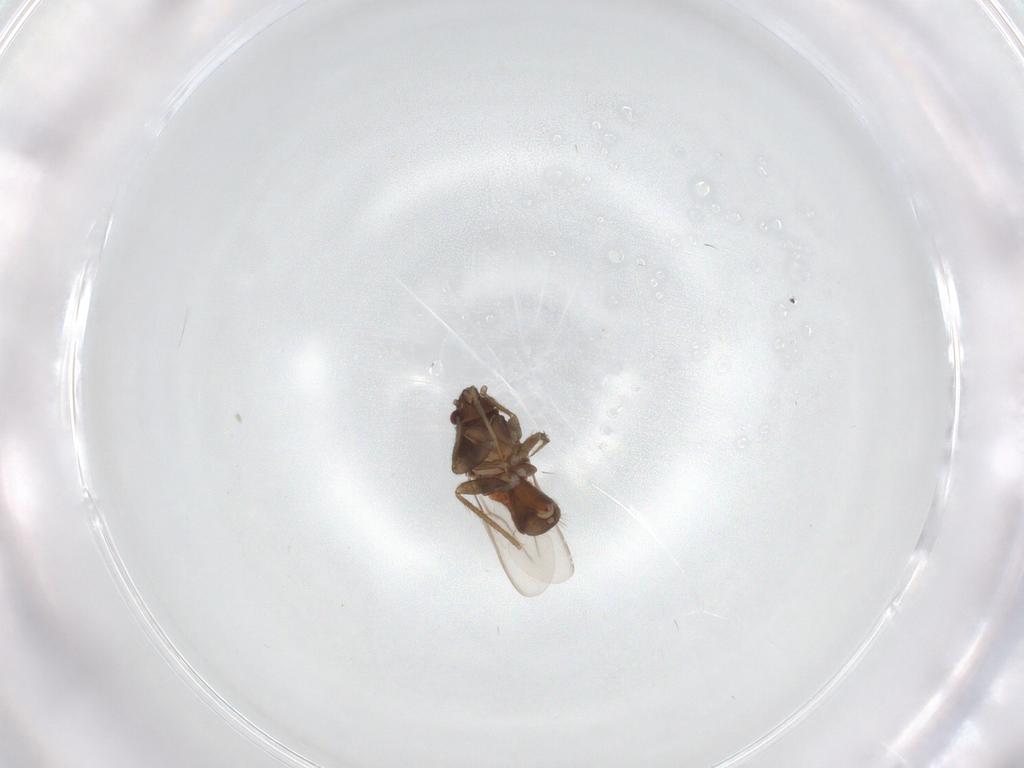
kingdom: Animalia
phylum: Arthropoda
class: Insecta
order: Diptera
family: Limoniidae
